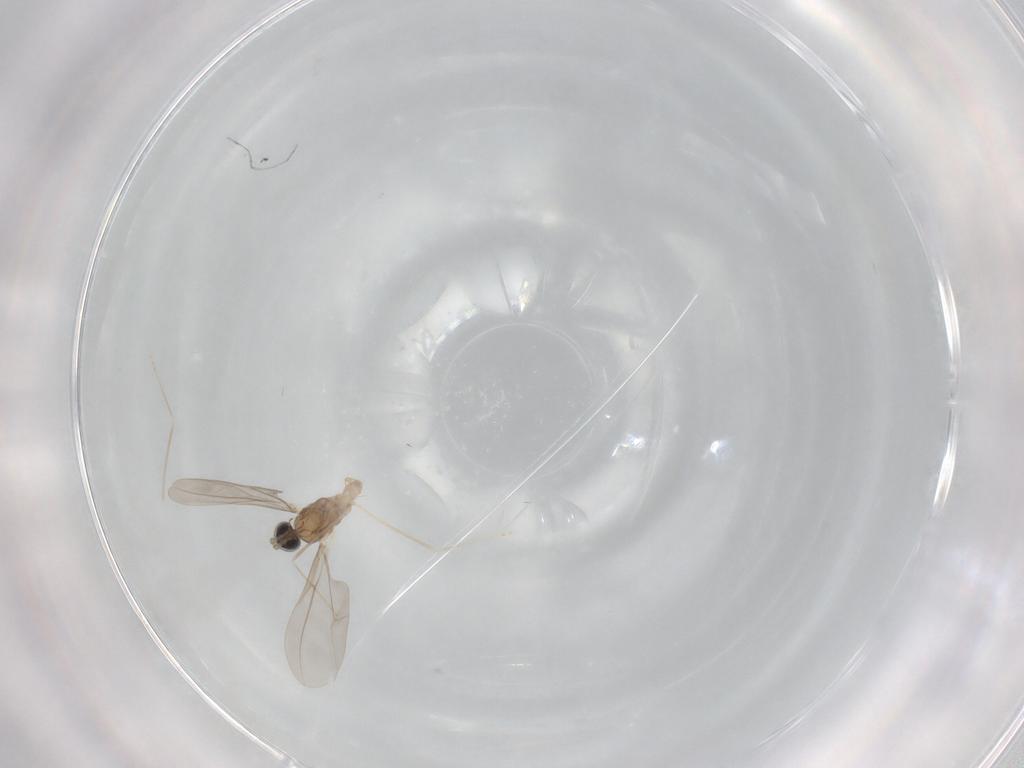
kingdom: Animalia
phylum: Arthropoda
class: Insecta
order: Diptera
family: Cecidomyiidae
